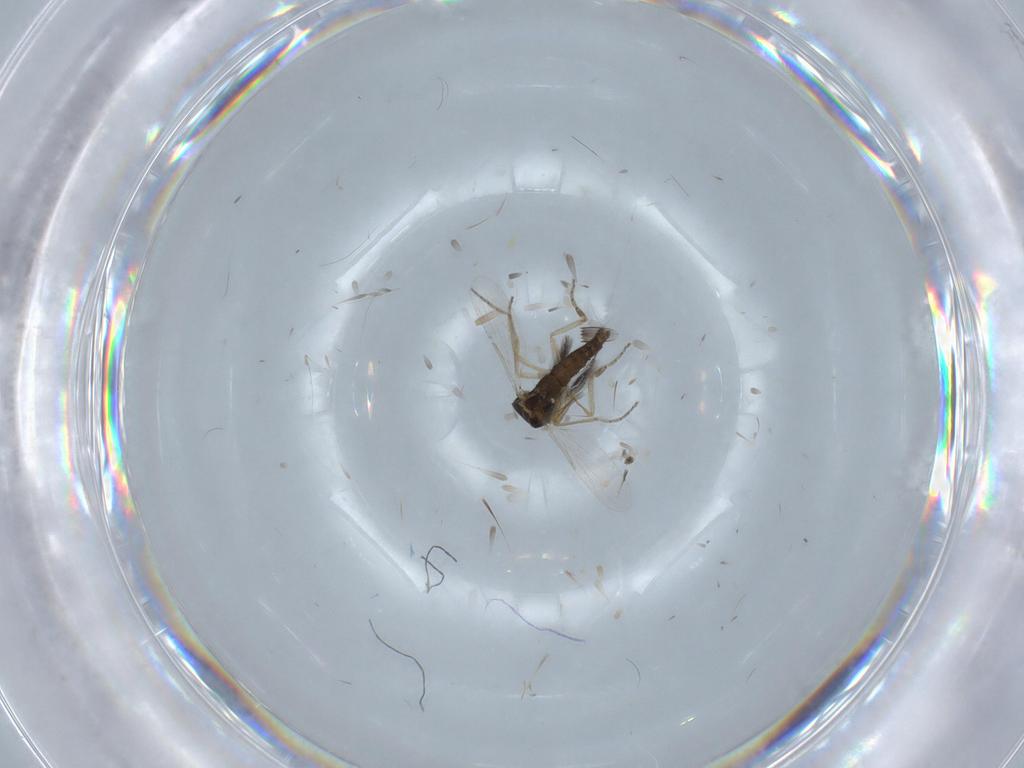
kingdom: Animalia
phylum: Arthropoda
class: Insecta
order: Diptera
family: Ceratopogonidae
